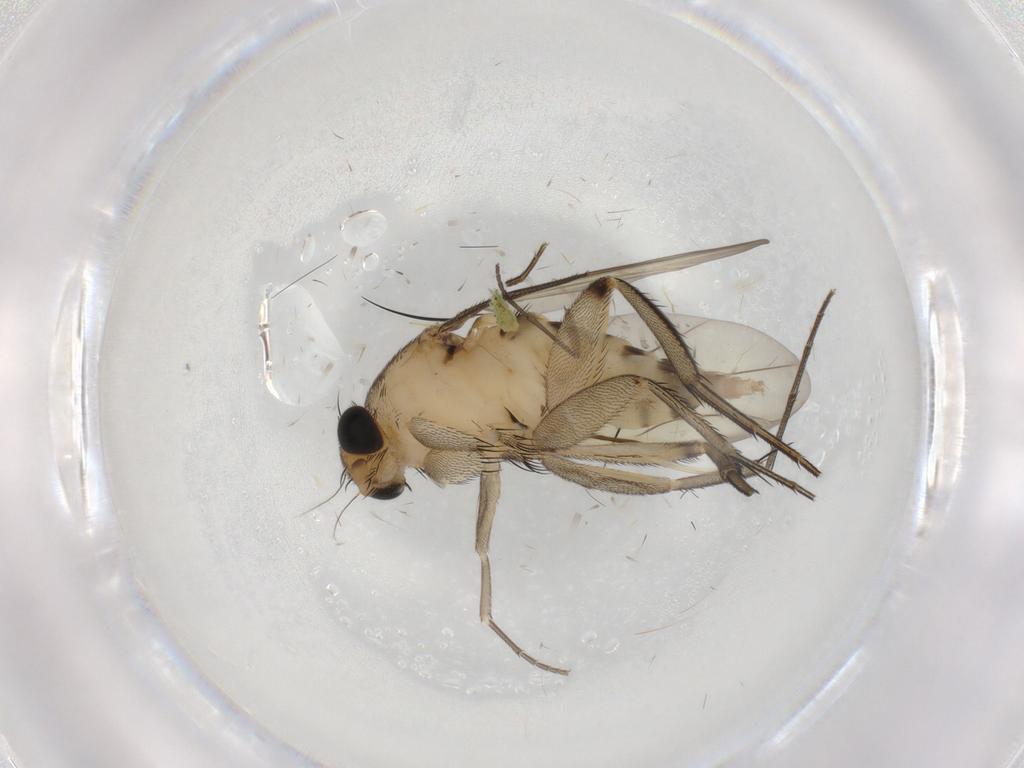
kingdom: Animalia
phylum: Arthropoda
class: Insecta
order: Diptera
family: Phoridae
